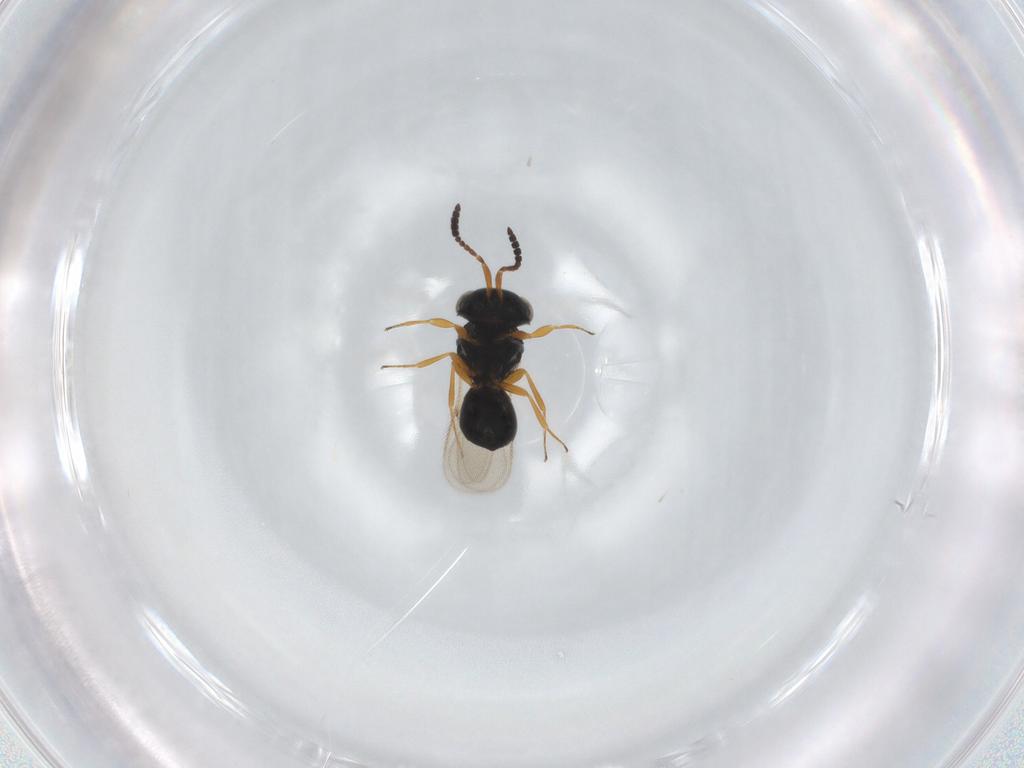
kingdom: Animalia
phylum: Arthropoda
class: Insecta
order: Hymenoptera
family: Scelionidae
